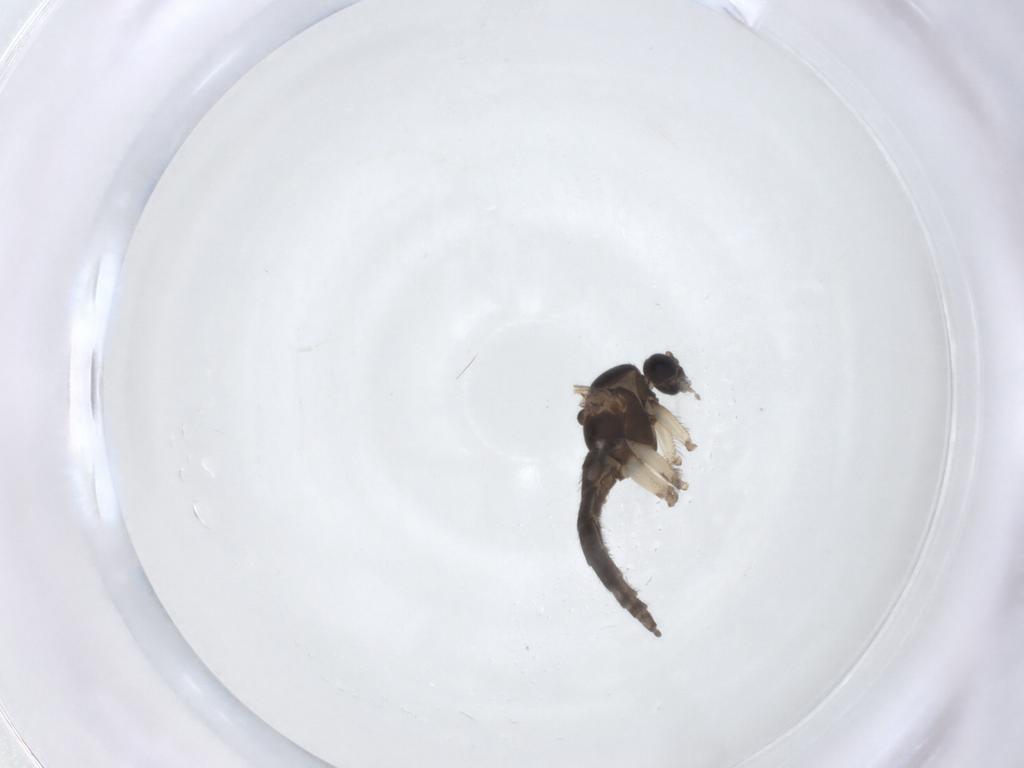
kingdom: Animalia
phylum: Arthropoda
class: Insecta
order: Diptera
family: Sciaridae
